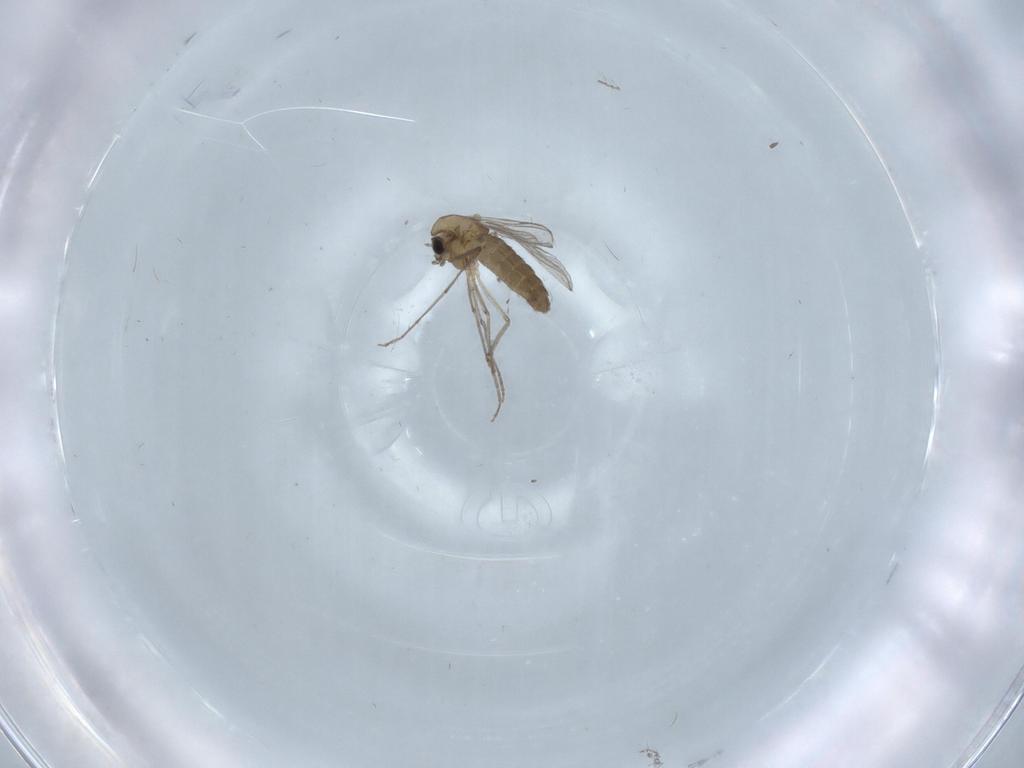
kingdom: Animalia
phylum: Arthropoda
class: Insecta
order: Diptera
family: Chironomidae
